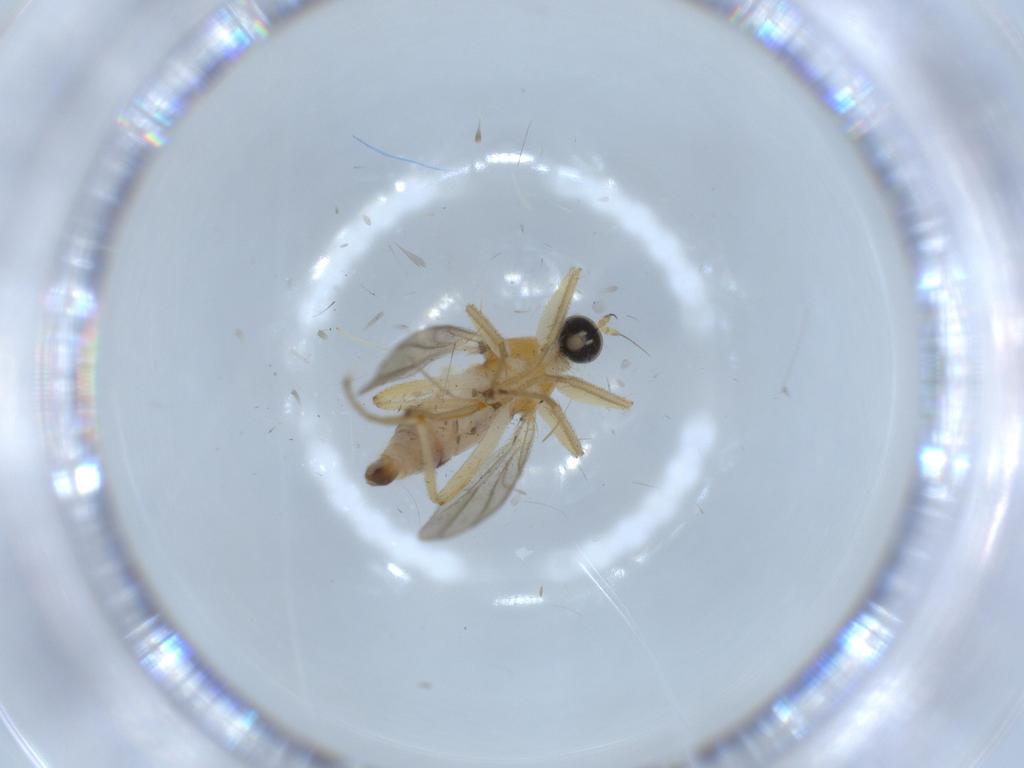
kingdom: Animalia
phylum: Arthropoda
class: Insecta
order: Diptera
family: Hybotidae
